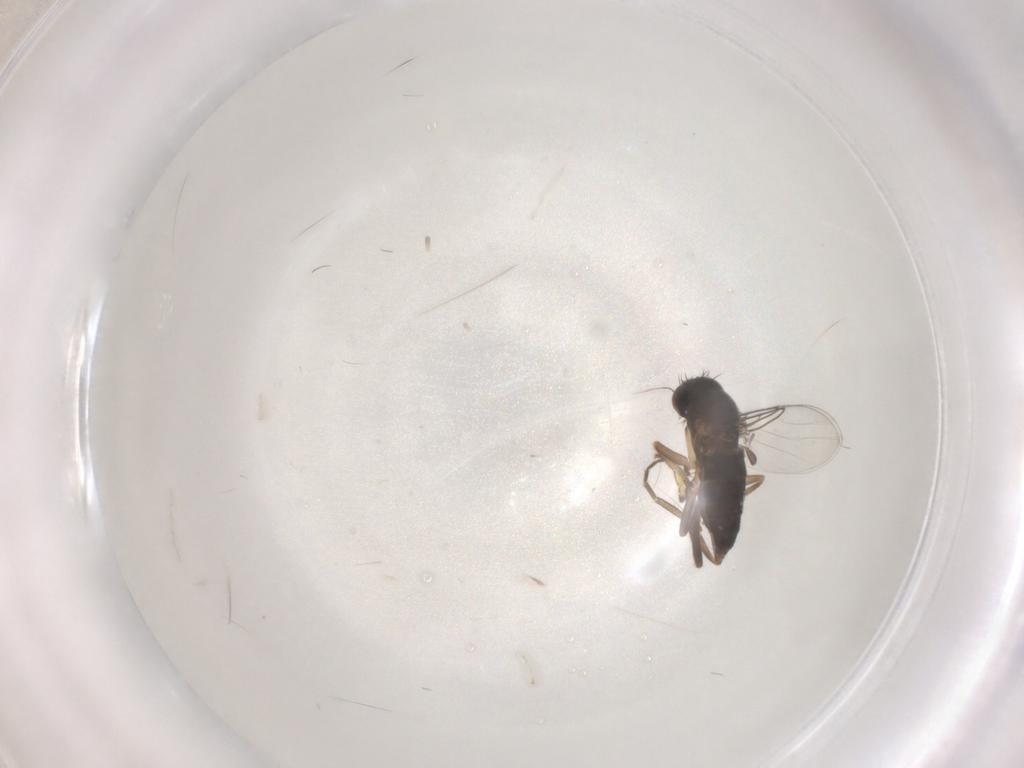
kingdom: Animalia
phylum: Arthropoda
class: Insecta
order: Diptera
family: Phoridae
